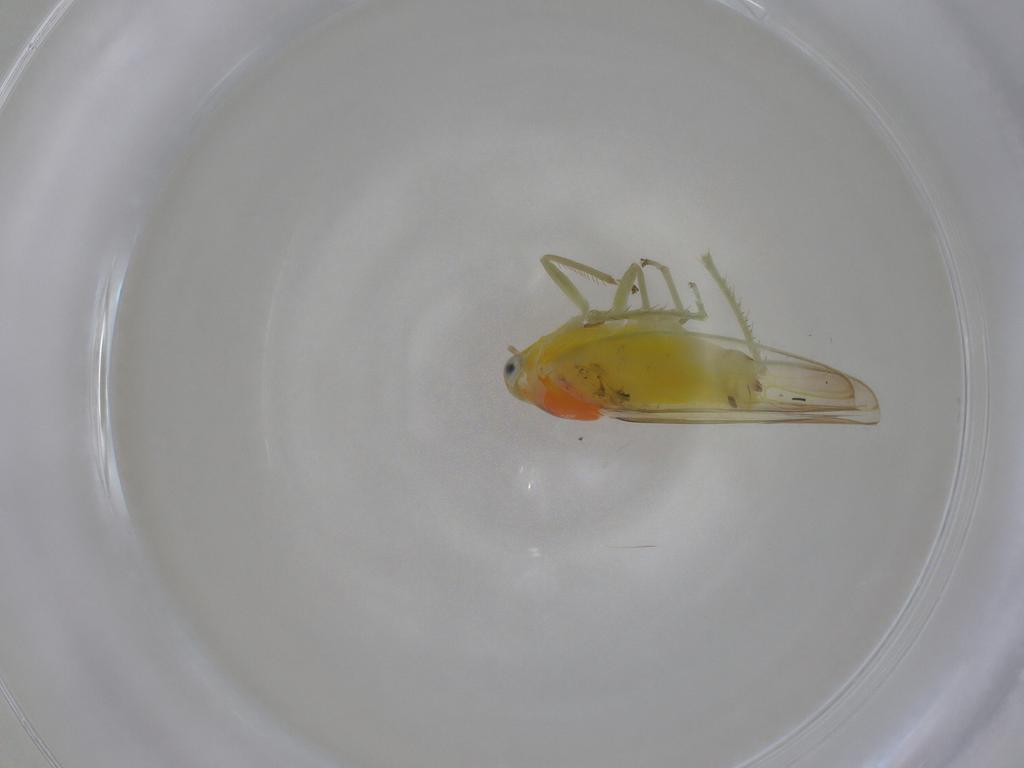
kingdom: Animalia
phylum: Arthropoda
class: Insecta
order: Hemiptera
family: Cicadellidae
